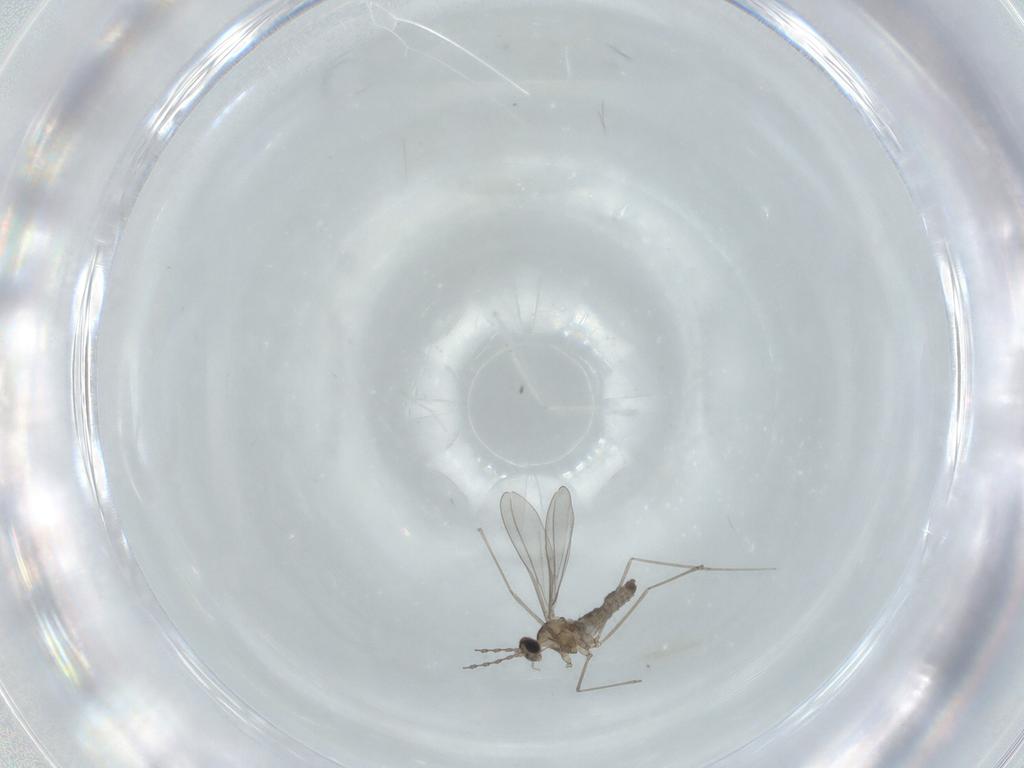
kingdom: Animalia
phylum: Arthropoda
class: Insecta
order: Diptera
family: Cecidomyiidae
